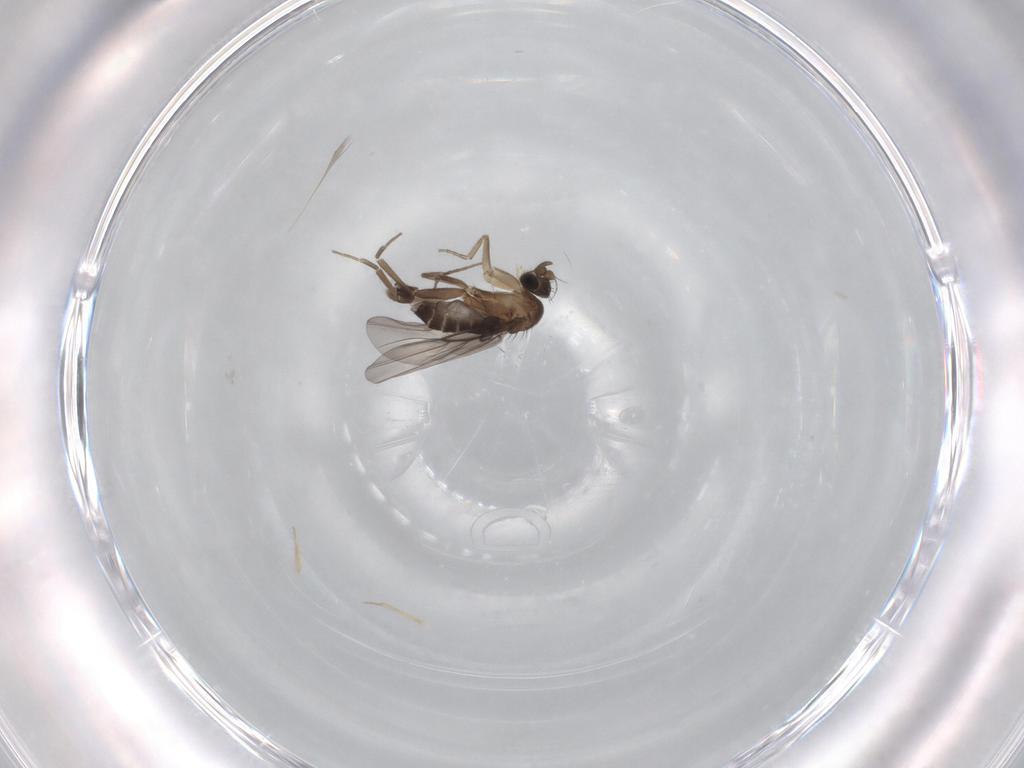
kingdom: Animalia
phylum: Arthropoda
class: Insecta
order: Diptera
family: Phoridae
